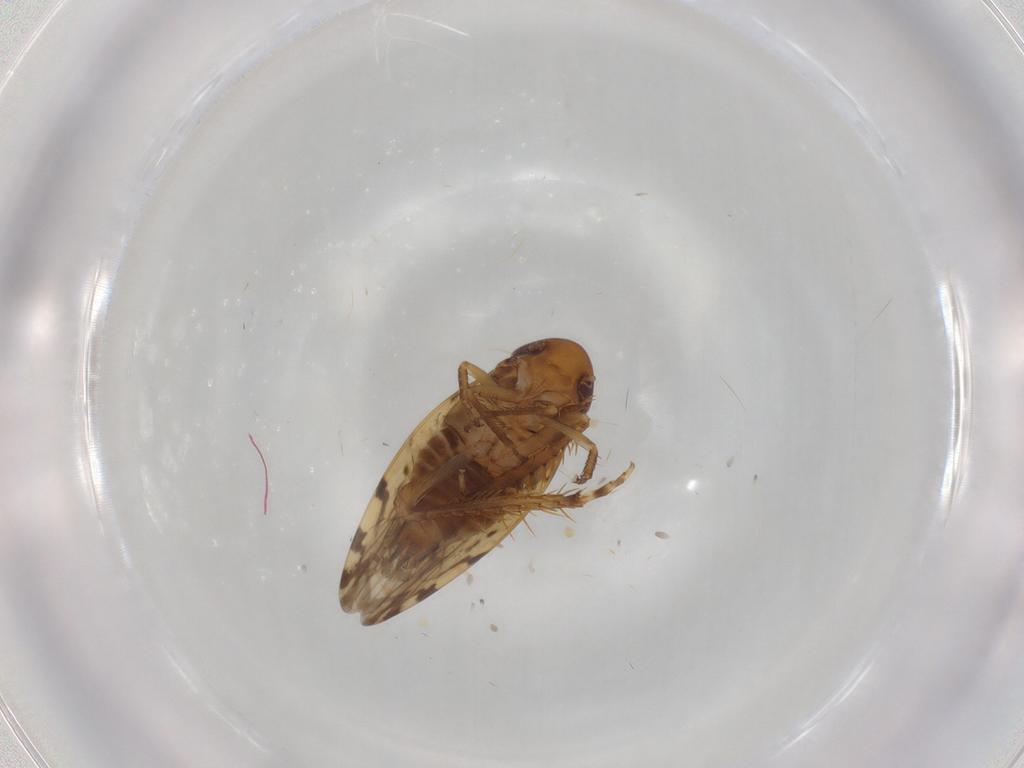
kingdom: Animalia
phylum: Arthropoda
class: Insecta
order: Hemiptera
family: Cicadellidae
